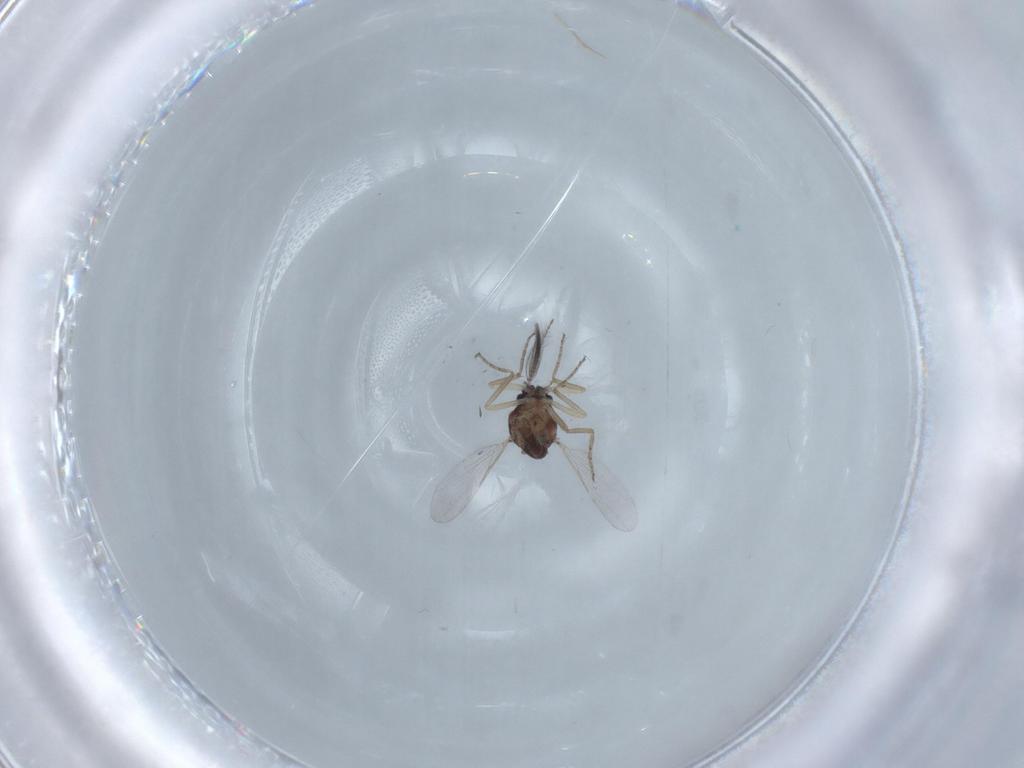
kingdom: Animalia
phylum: Arthropoda
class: Insecta
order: Diptera
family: Ceratopogonidae
